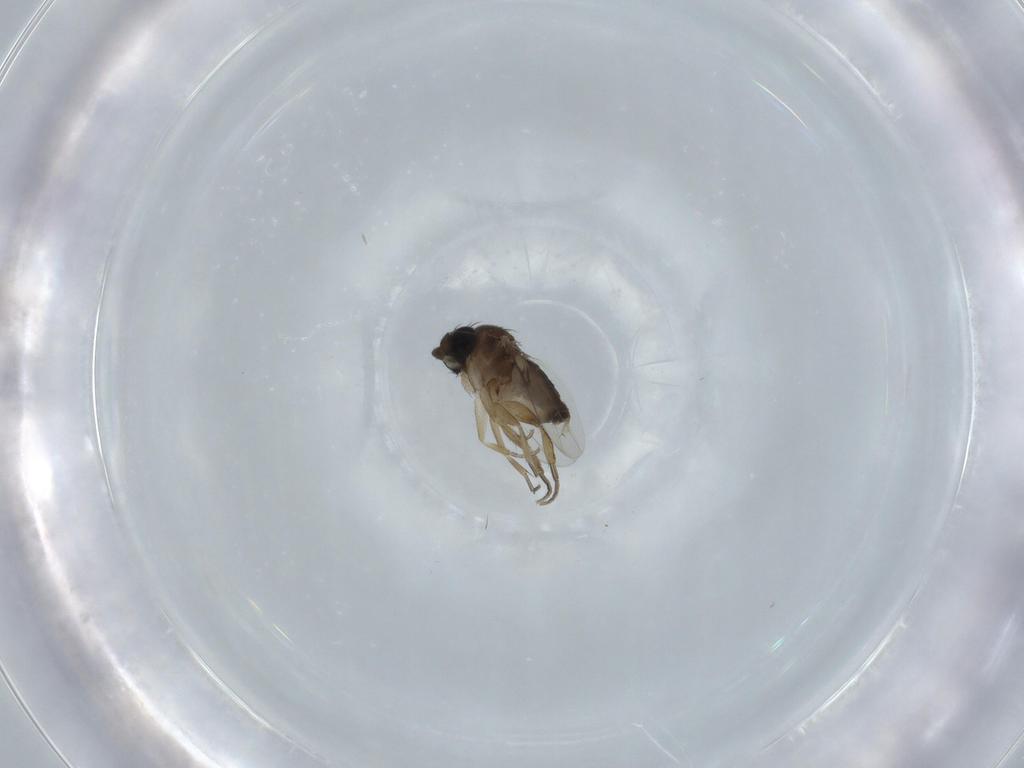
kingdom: Animalia
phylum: Arthropoda
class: Insecta
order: Diptera
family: Phoridae
